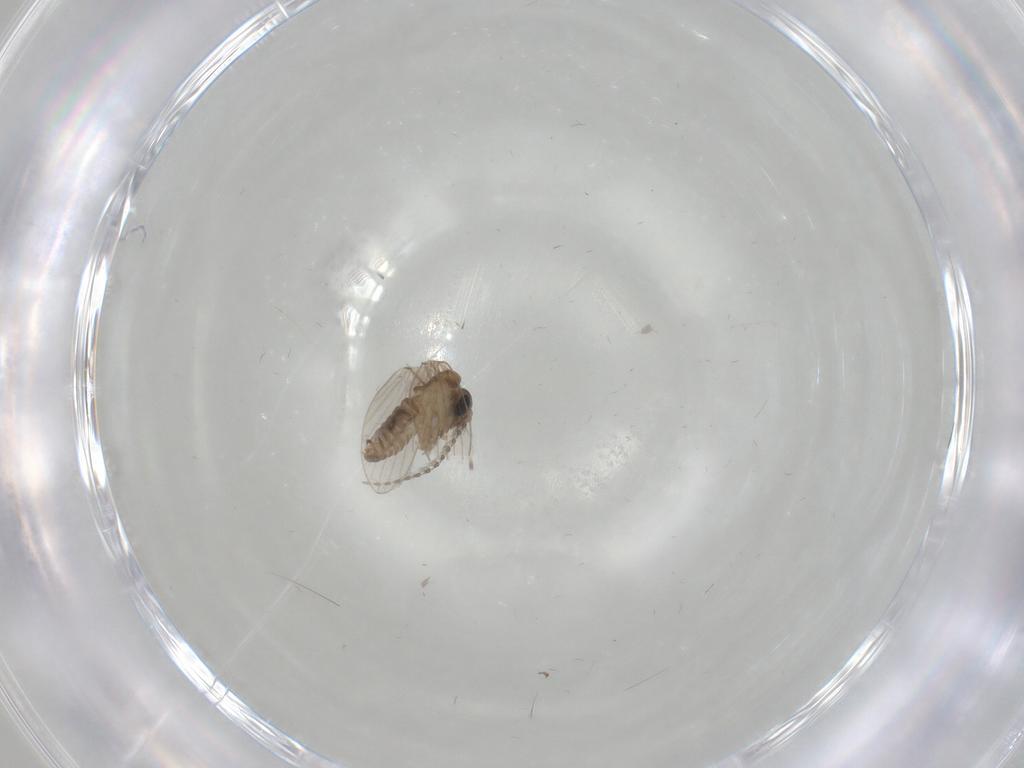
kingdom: Animalia
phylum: Arthropoda
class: Insecta
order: Diptera
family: Psychodidae
